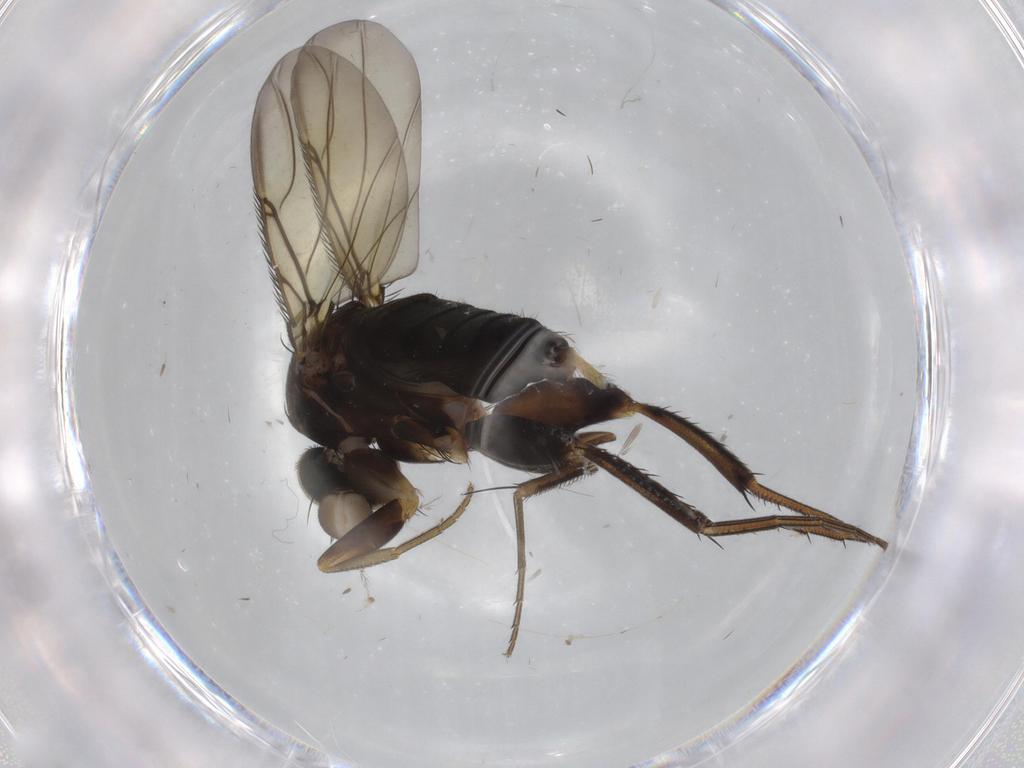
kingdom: Animalia
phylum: Arthropoda
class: Insecta
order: Diptera
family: Phoridae
